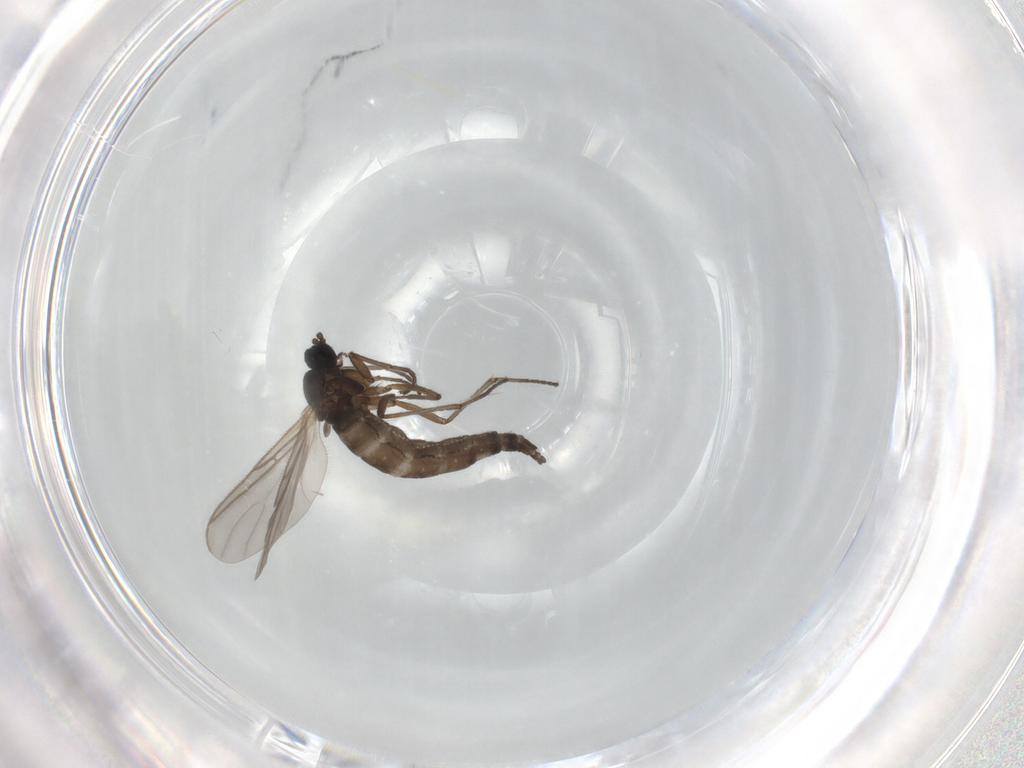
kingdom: Animalia
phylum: Arthropoda
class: Insecta
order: Diptera
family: Sciaridae
